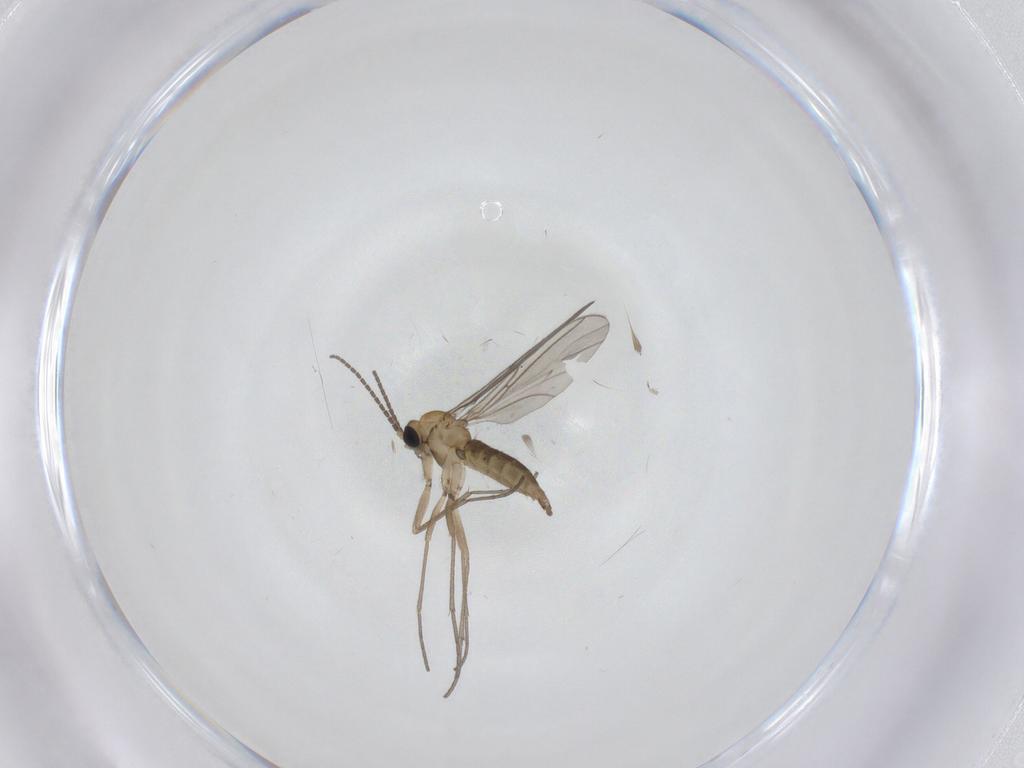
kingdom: Animalia
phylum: Arthropoda
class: Insecta
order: Diptera
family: Sciaridae
